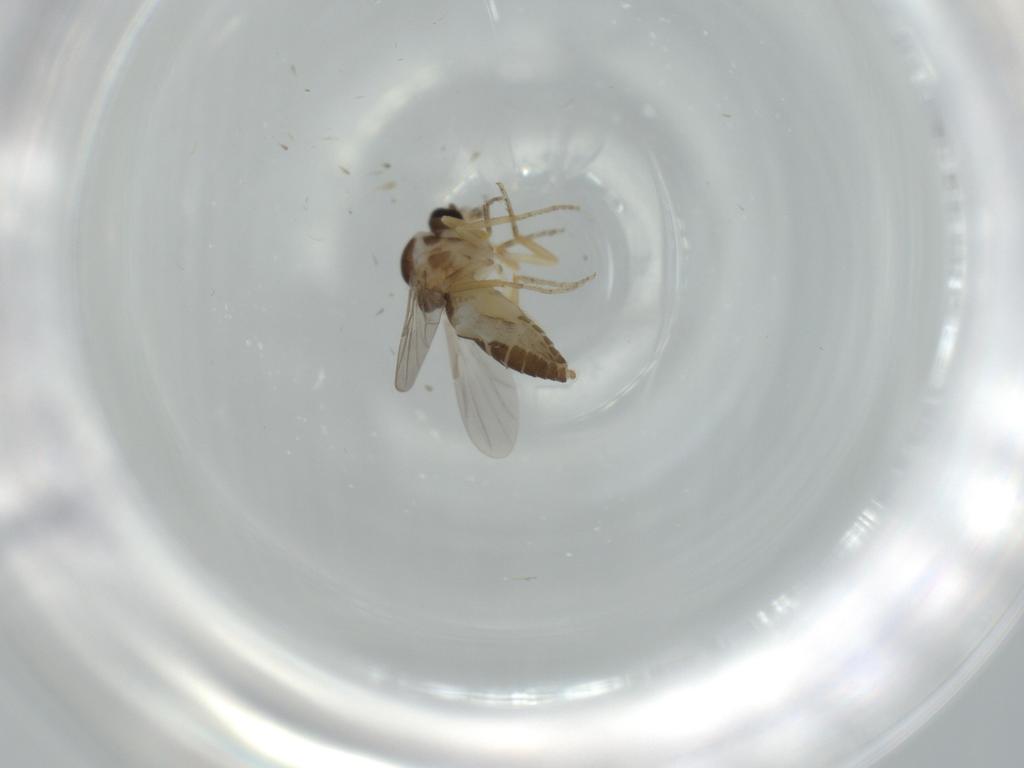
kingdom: Animalia
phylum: Arthropoda
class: Insecta
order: Diptera
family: Ceratopogonidae
